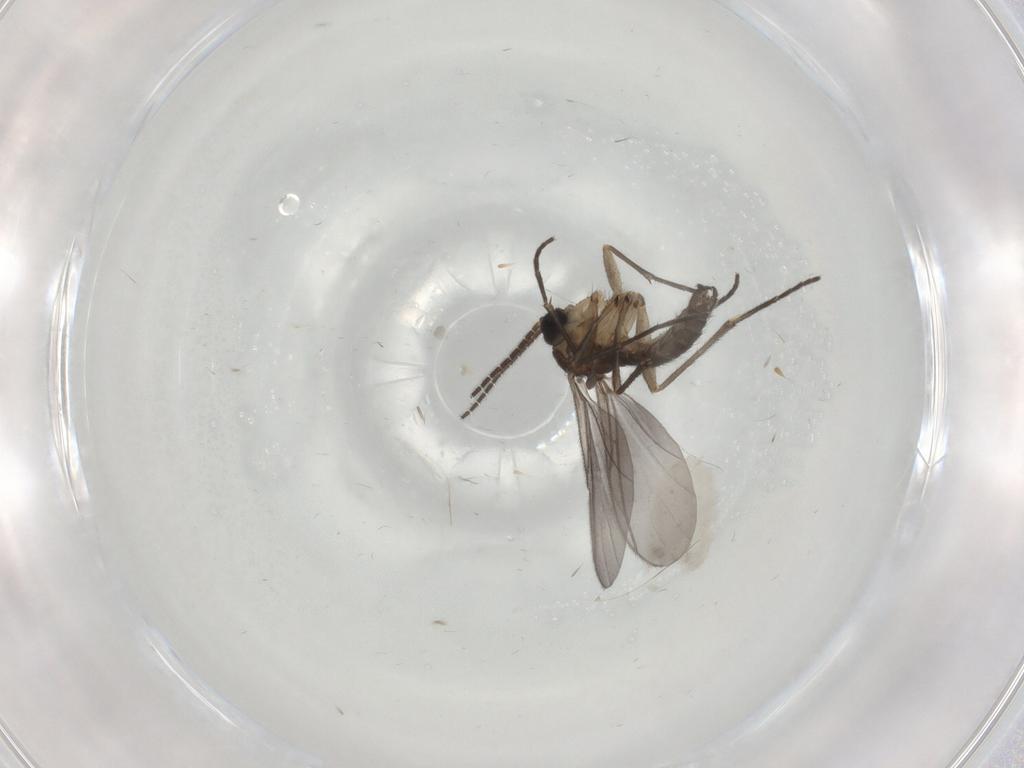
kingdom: Animalia
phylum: Arthropoda
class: Insecta
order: Diptera
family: Sciaridae
